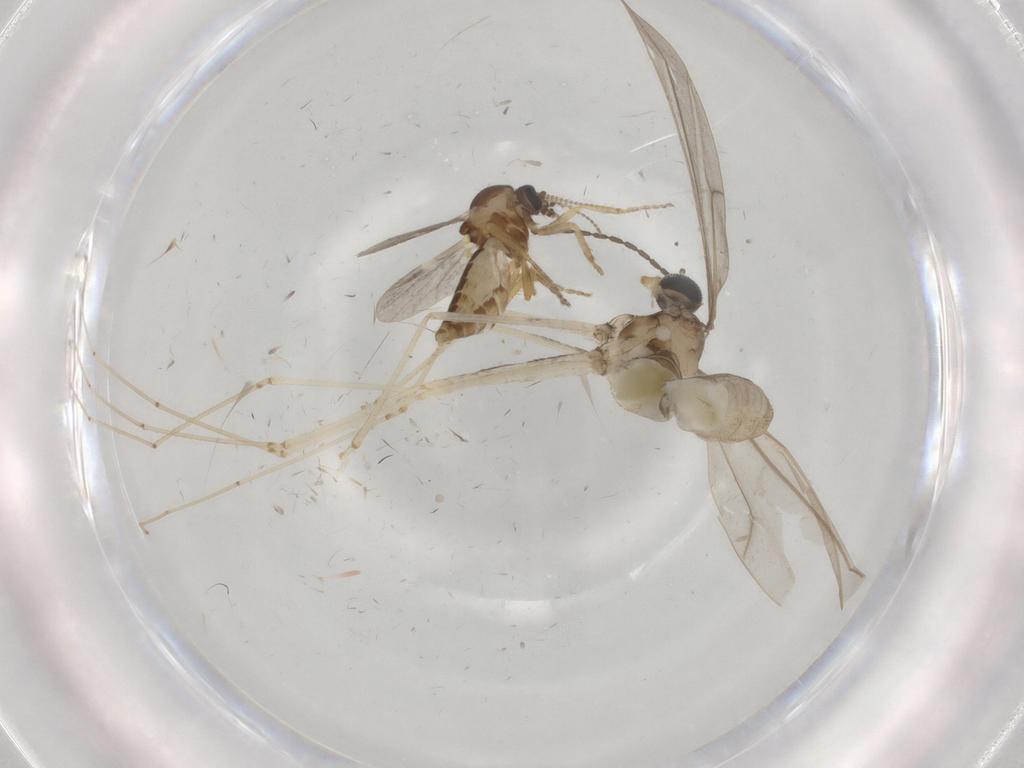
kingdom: Animalia
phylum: Arthropoda
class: Insecta
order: Diptera
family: Cecidomyiidae
